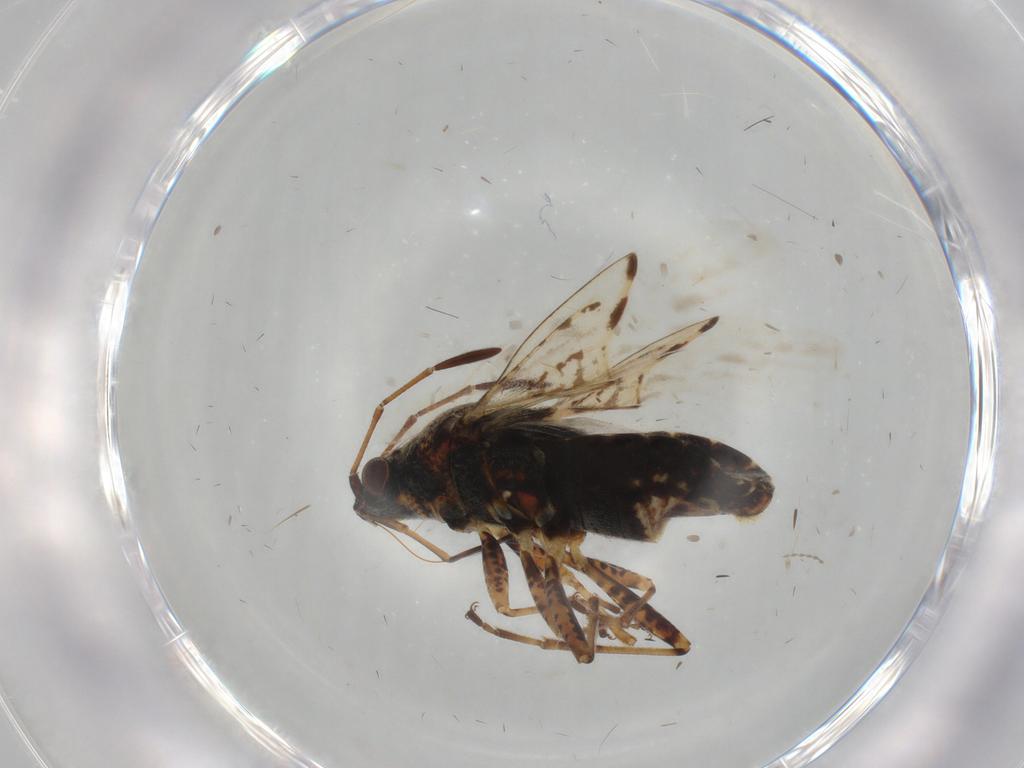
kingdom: Animalia
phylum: Arthropoda
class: Insecta
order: Hemiptera
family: Lygaeidae
